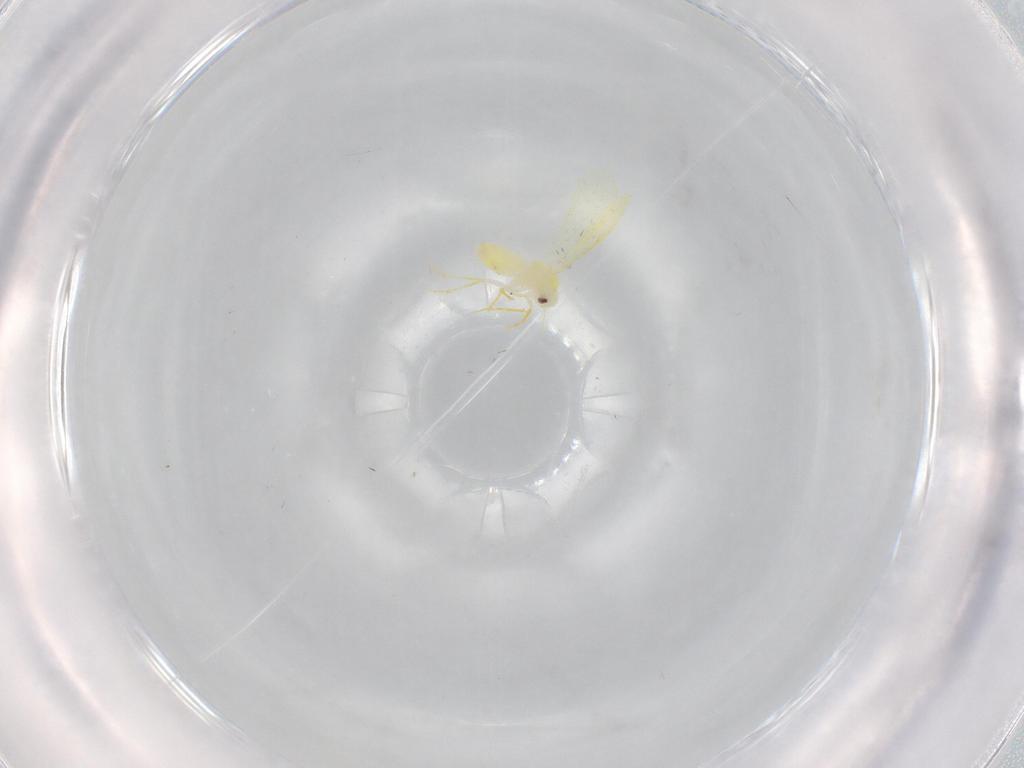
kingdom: Animalia
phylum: Arthropoda
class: Insecta
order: Hemiptera
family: Aleyrodidae
